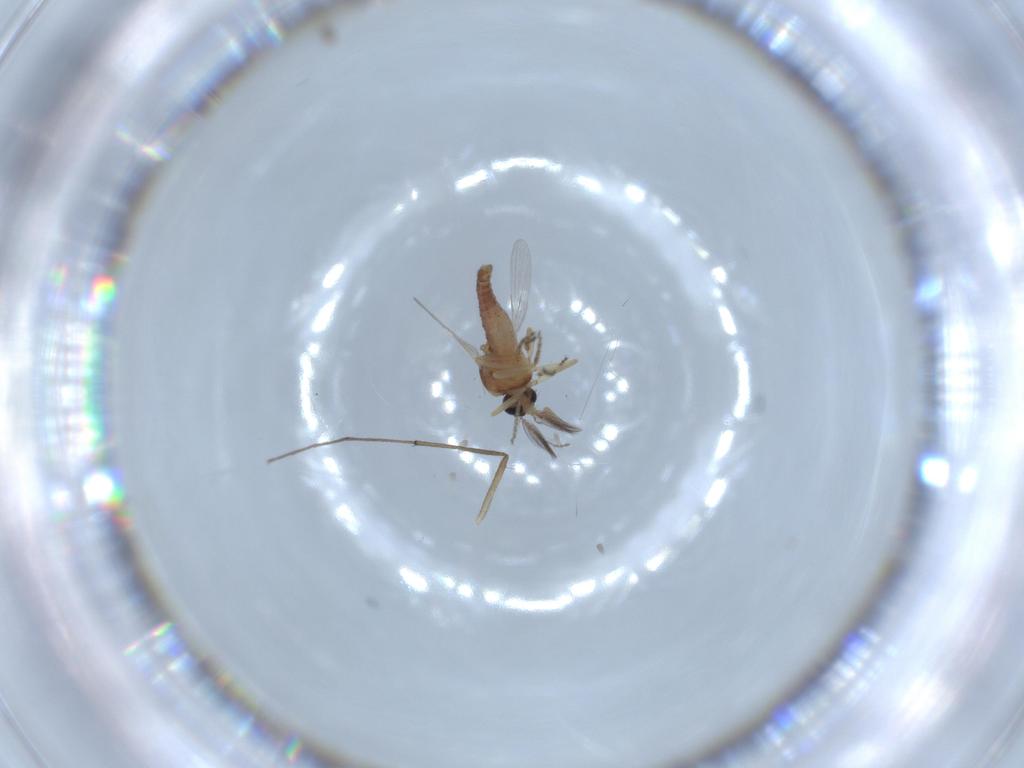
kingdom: Animalia
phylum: Arthropoda
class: Insecta
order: Diptera
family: Ceratopogonidae
